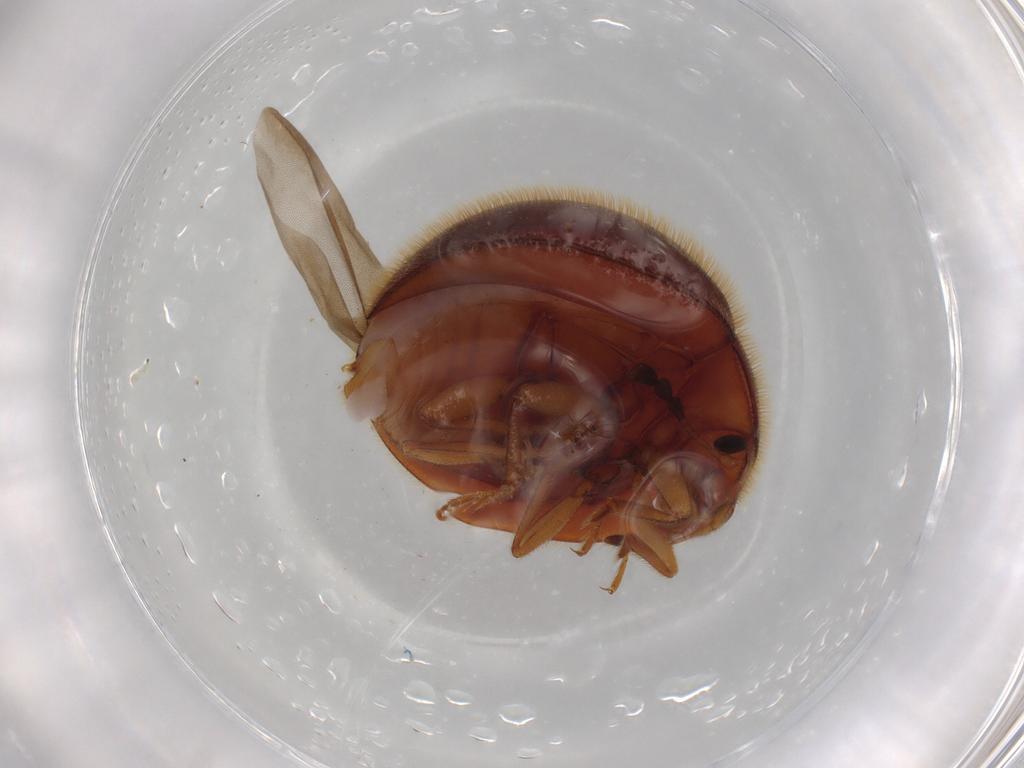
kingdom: Animalia
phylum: Arthropoda
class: Insecta
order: Coleoptera
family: Anamorphidae
